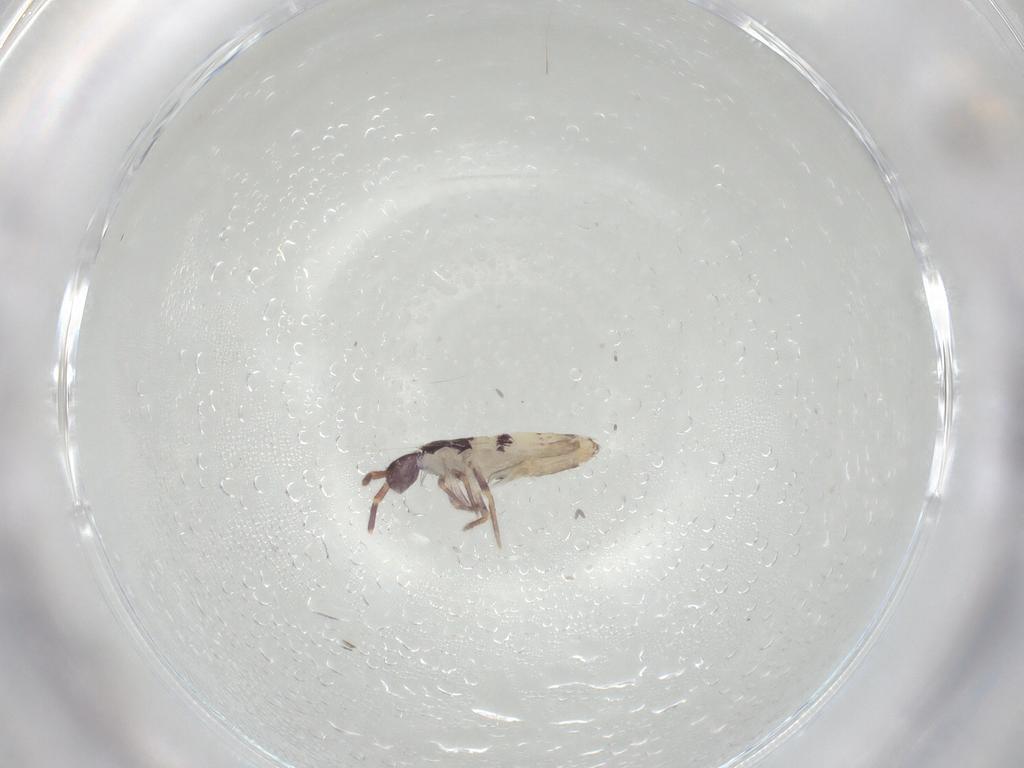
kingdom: Animalia
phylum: Arthropoda
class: Collembola
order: Entomobryomorpha
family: Entomobryidae
